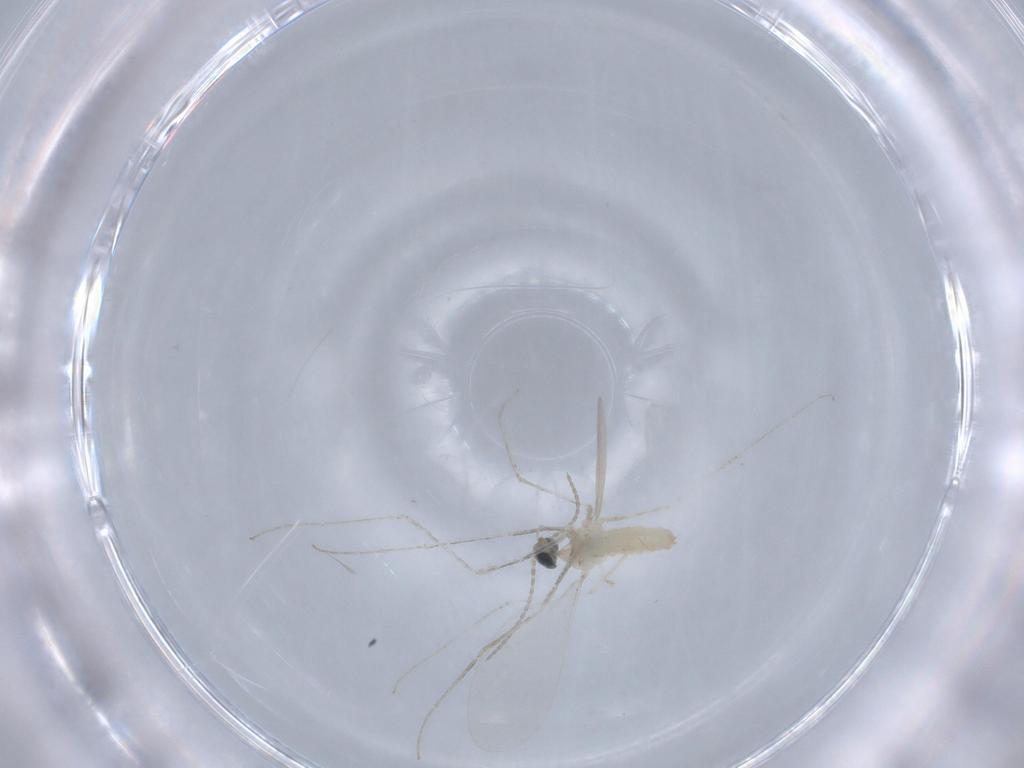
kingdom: Animalia
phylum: Arthropoda
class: Insecta
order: Diptera
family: Cecidomyiidae
